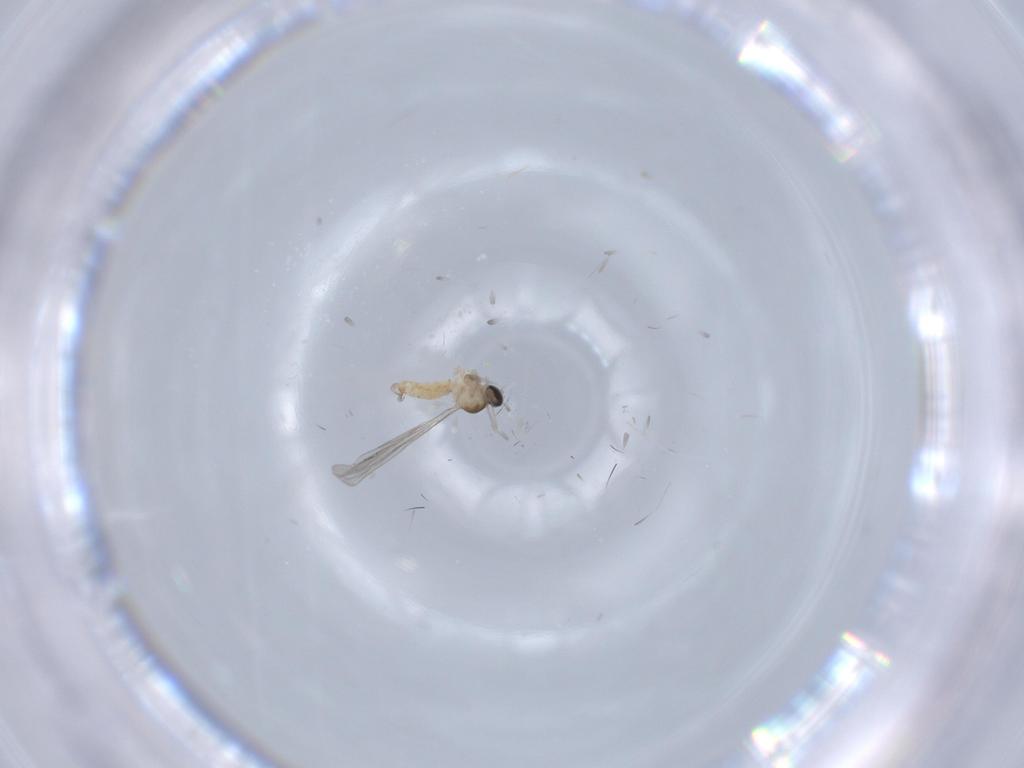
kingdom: Animalia
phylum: Arthropoda
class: Insecta
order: Diptera
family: Cecidomyiidae
